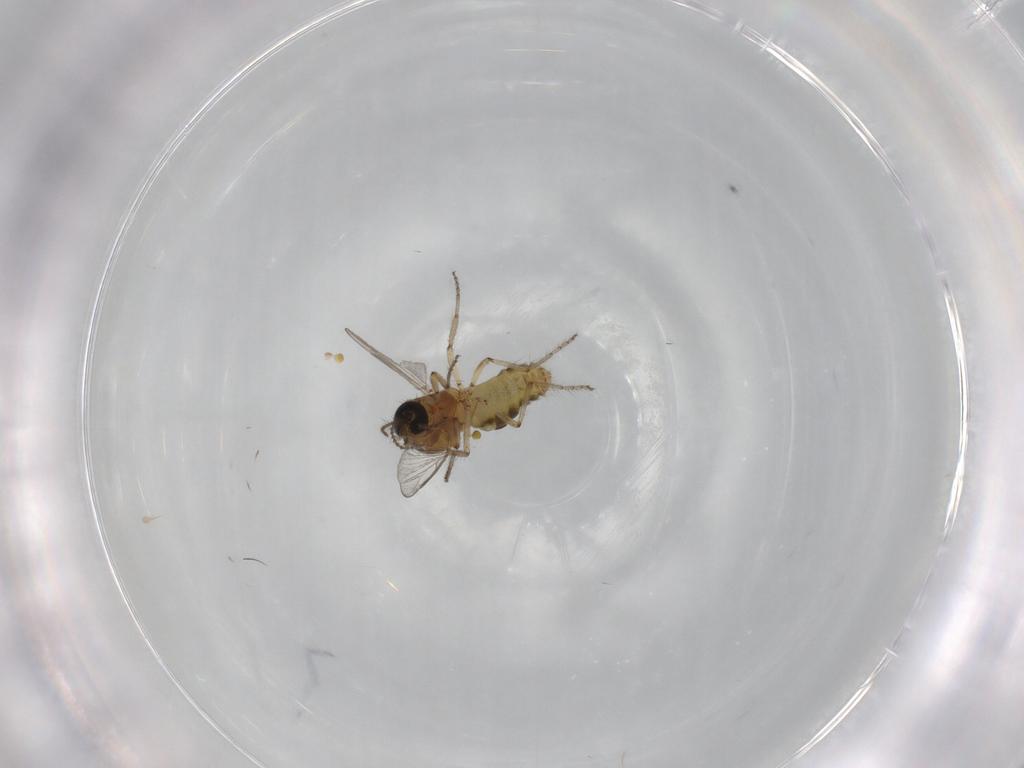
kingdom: Animalia
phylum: Arthropoda
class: Insecta
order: Diptera
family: Ceratopogonidae
